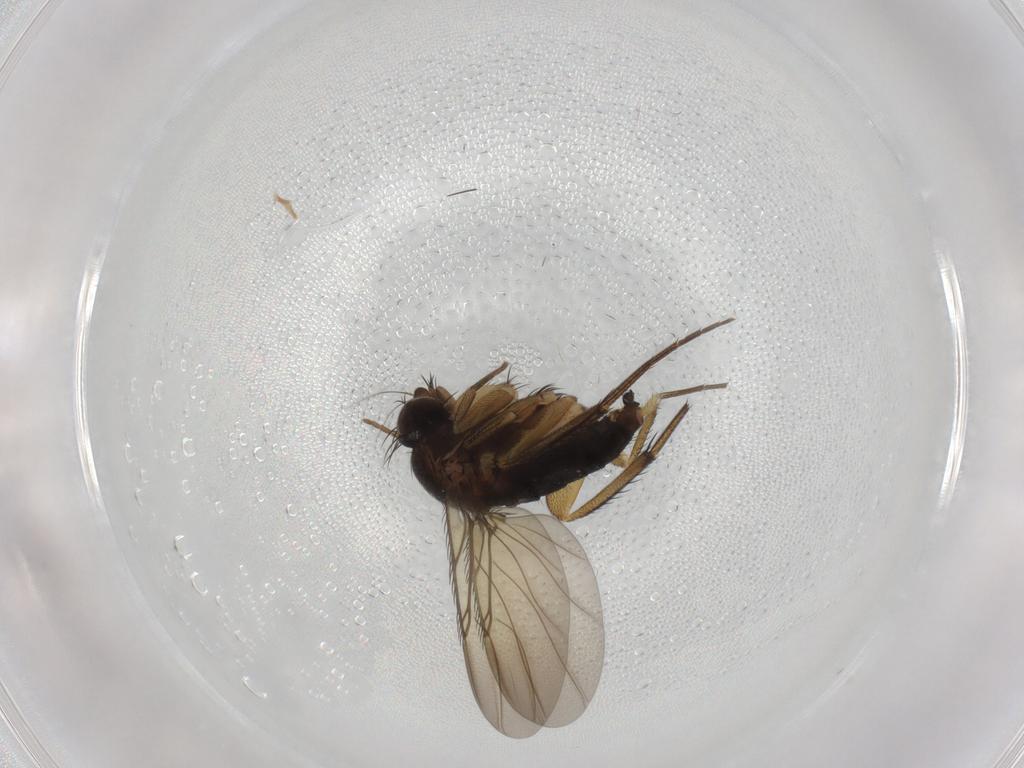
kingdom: Animalia
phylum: Arthropoda
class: Insecta
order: Diptera
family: Phoridae
